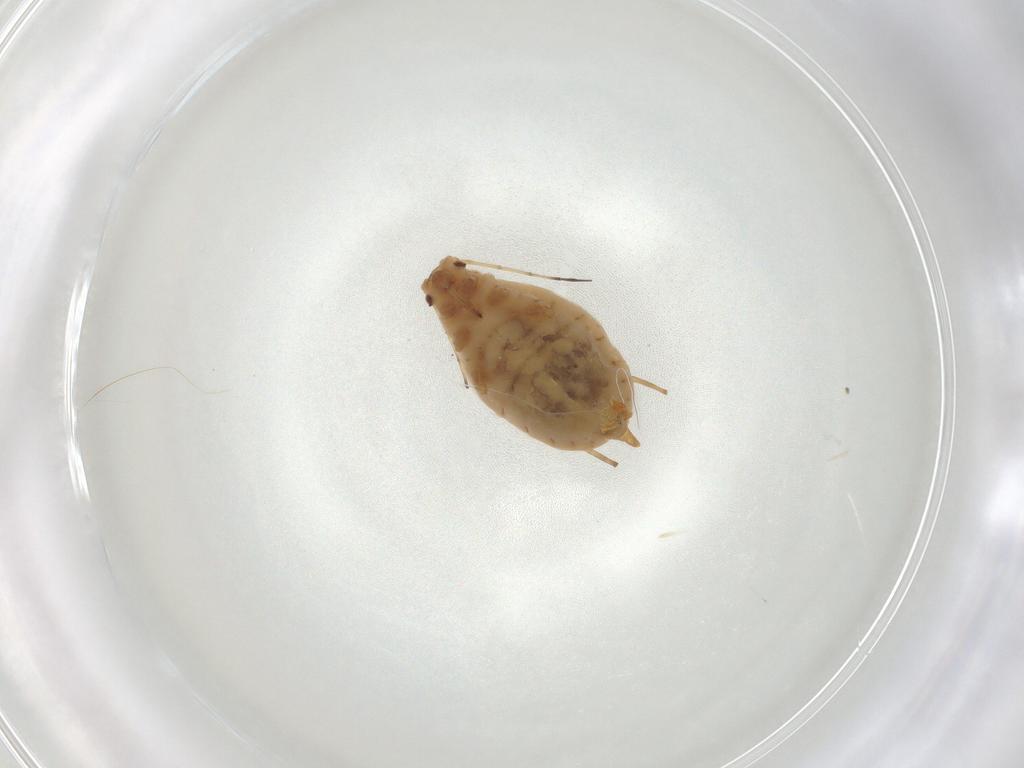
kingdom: Animalia
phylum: Arthropoda
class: Insecta
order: Hemiptera
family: Aphididae
